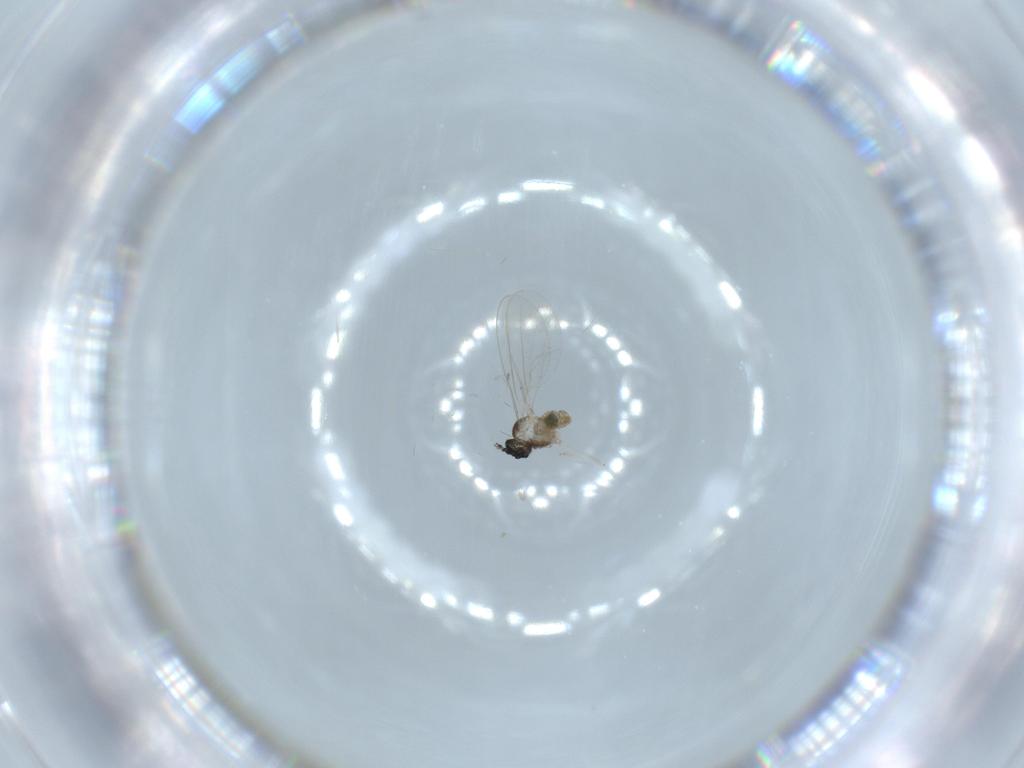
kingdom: Animalia
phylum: Arthropoda
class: Insecta
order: Diptera
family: Cecidomyiidae
